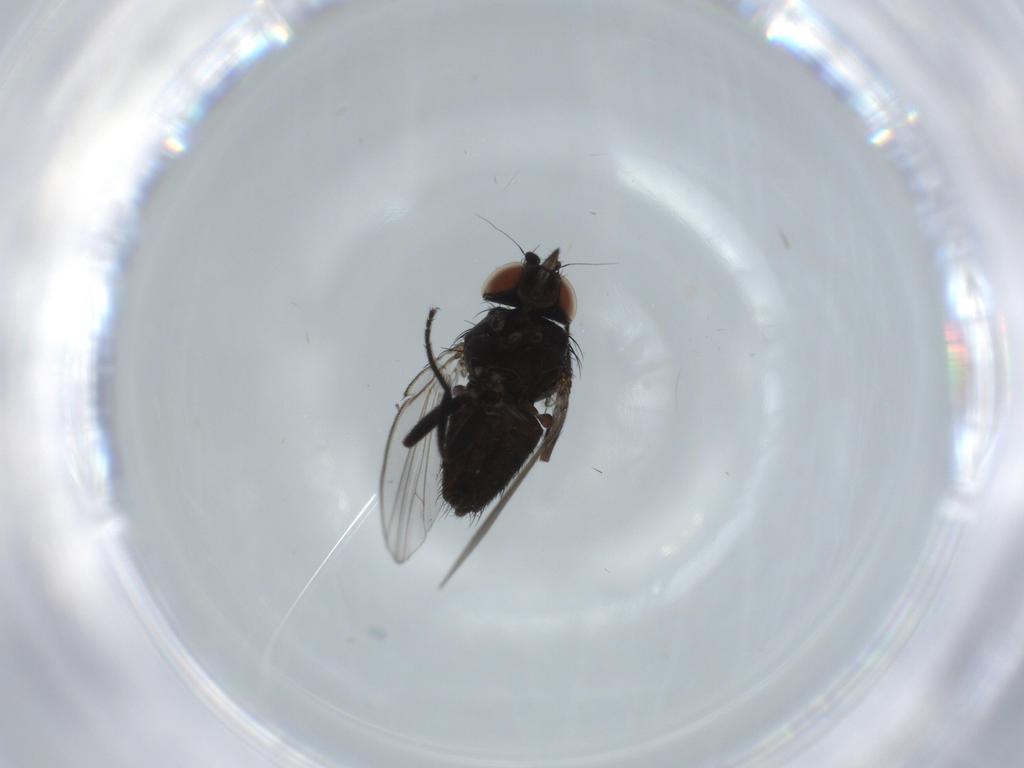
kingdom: Animalia
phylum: Arthropoda
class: Insecta
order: Diptera
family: Milichiidae
